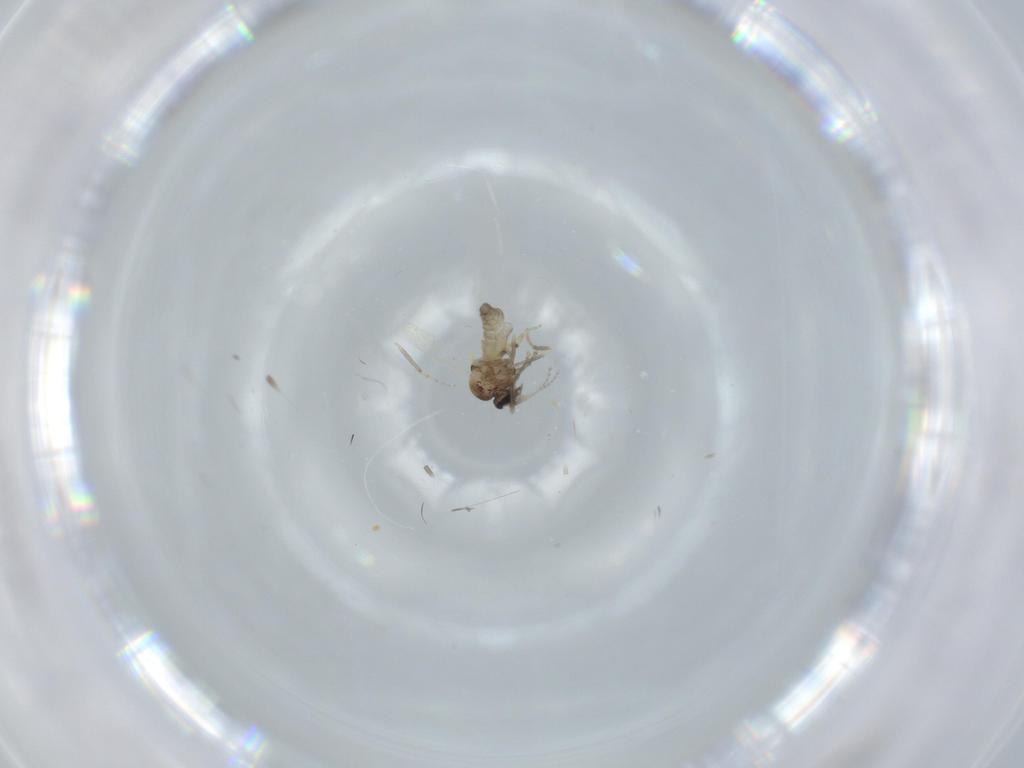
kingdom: Animalia
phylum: Arthropoda
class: Insecta
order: Diptera
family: Ceratopogonidae
